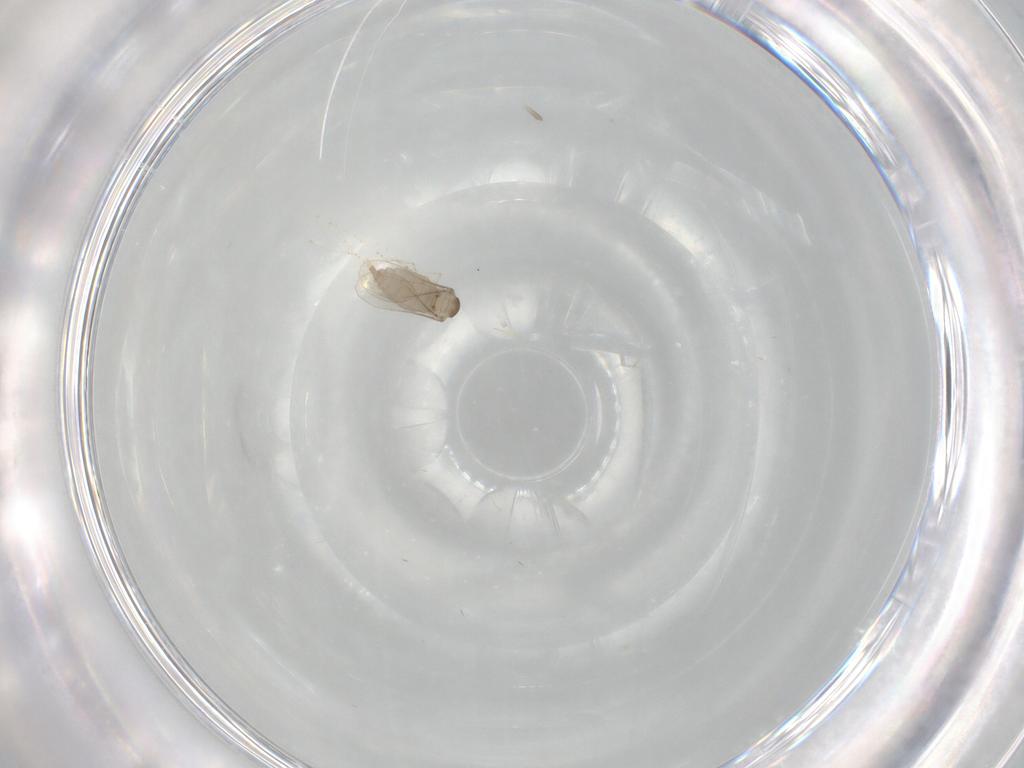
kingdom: Animalia
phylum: Arthropoda
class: Insecta
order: Diptera
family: Cecidomyiidae
